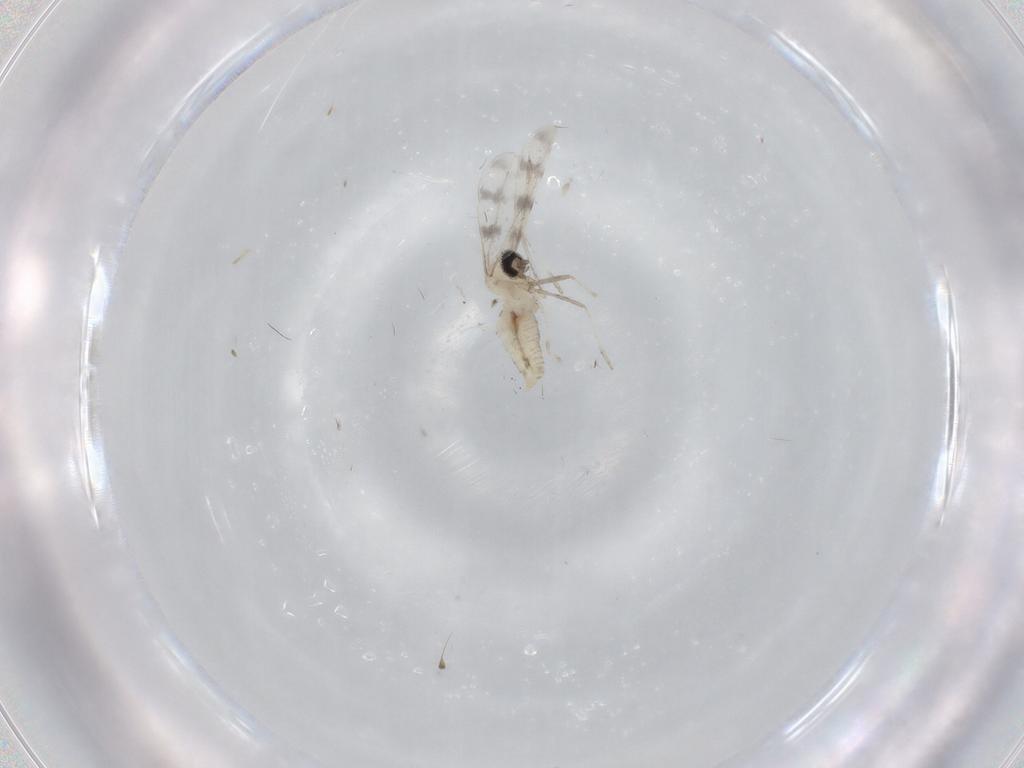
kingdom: Animalia
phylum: Arthropoda
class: Insecta
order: Diptera
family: Cecidomyiidae
